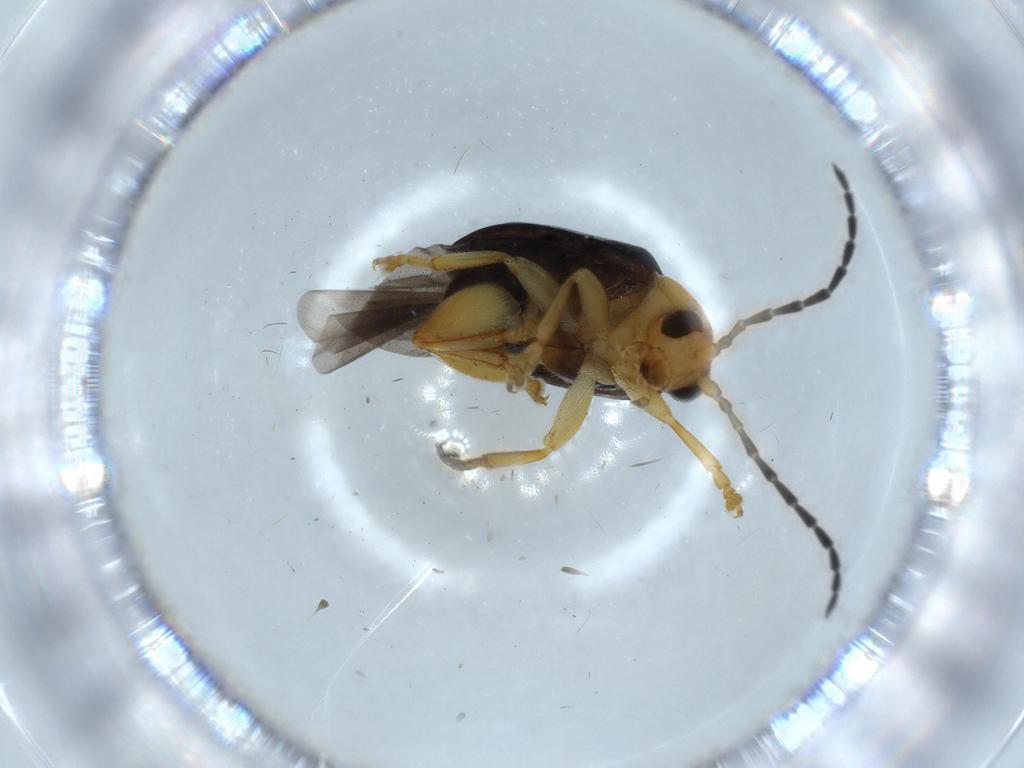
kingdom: Animalia
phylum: Arthropoda
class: Insecta
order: Coleoptera
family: Chrysomelidae
